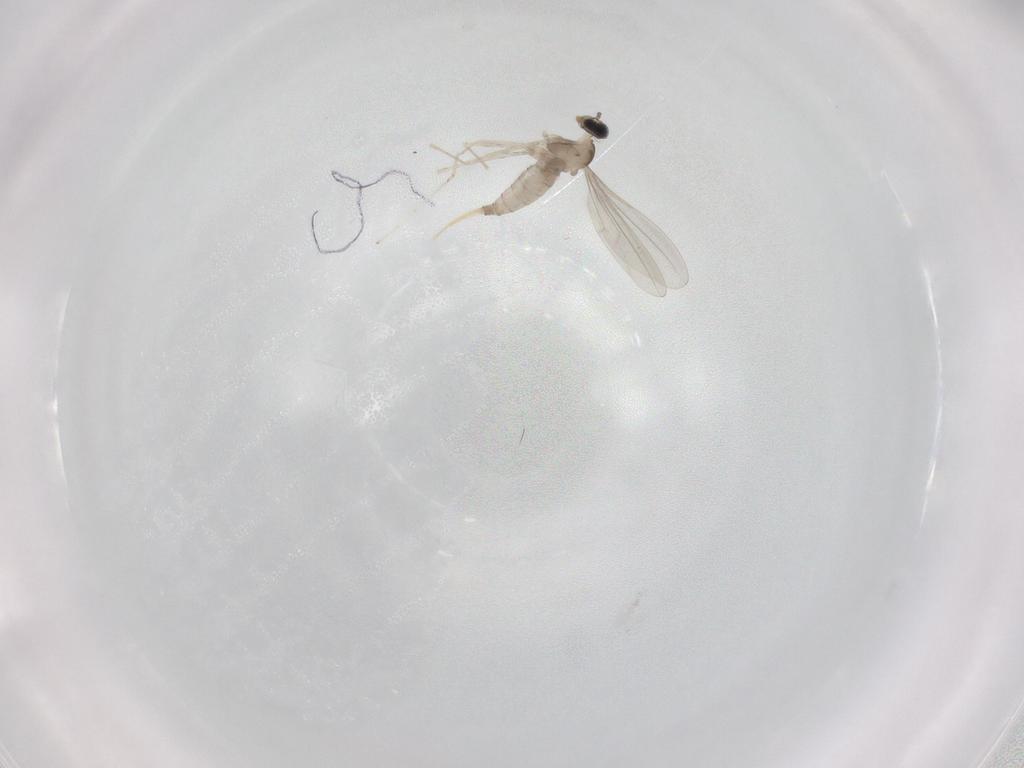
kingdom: Animalia
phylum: Arthropoda
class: Insecta
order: Diptera
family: Cecidomyiidae
